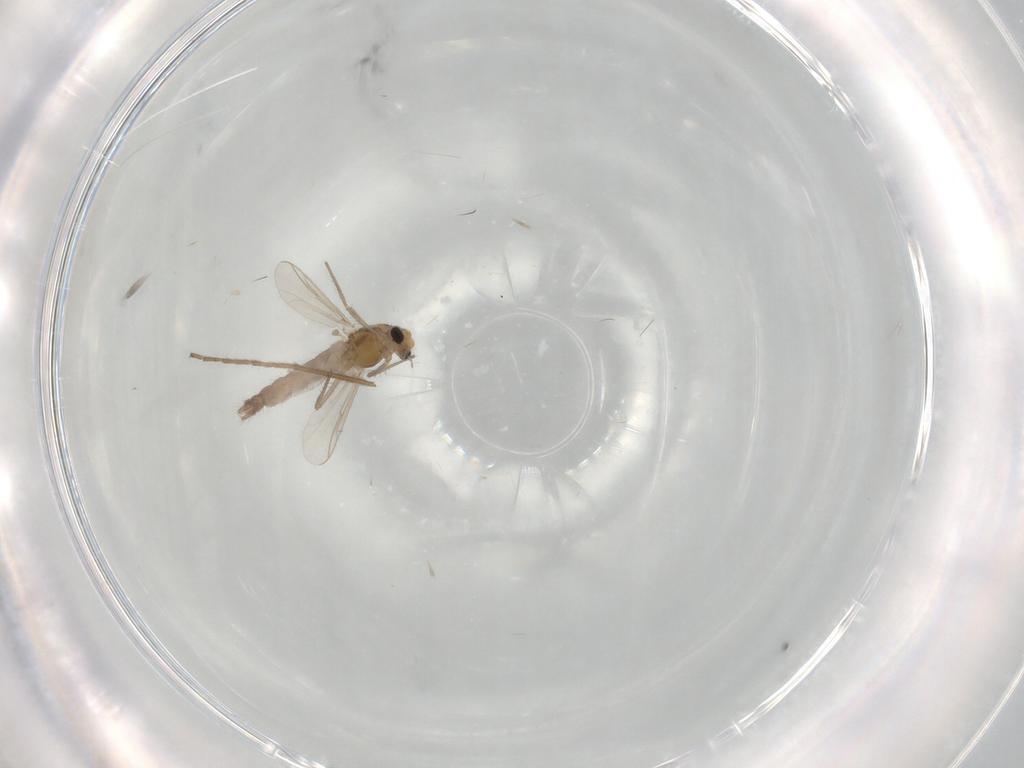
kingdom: Animalia
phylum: Arthropoda
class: Insecta
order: Diptera
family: Chironomidae
